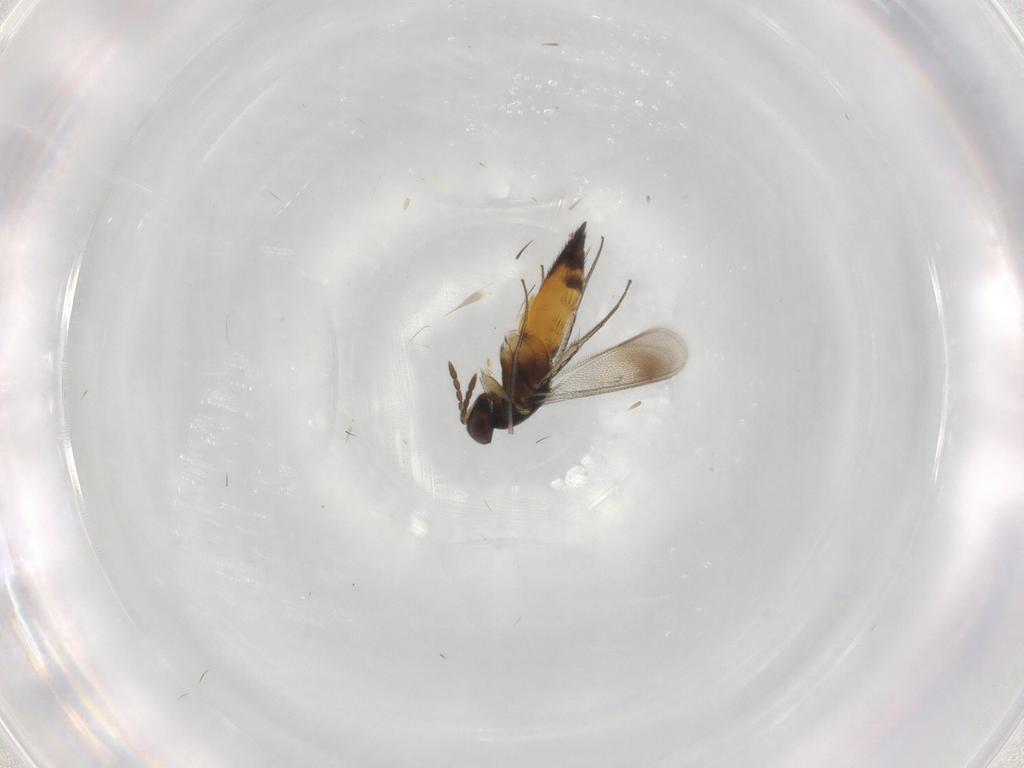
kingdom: Animalia
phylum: Arthropoda
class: Insecta
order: Hymenoptera
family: Eulophidae
